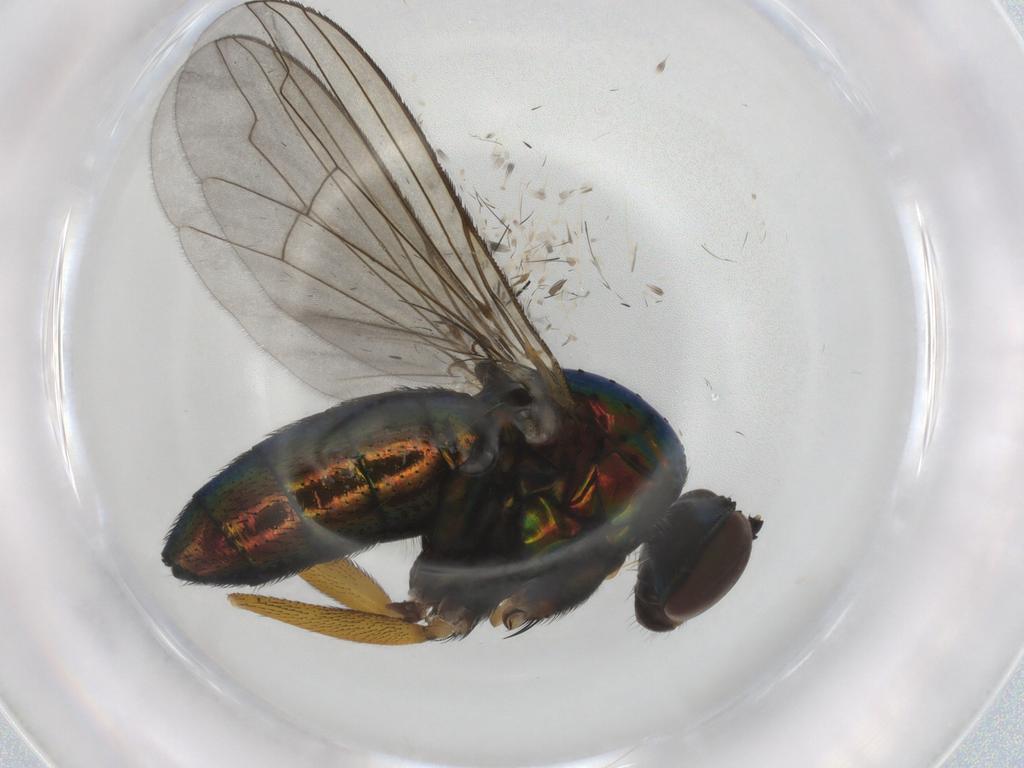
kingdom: Animalia
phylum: Arthropoda
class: Insecta
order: Diptera
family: Dolichopodidae
